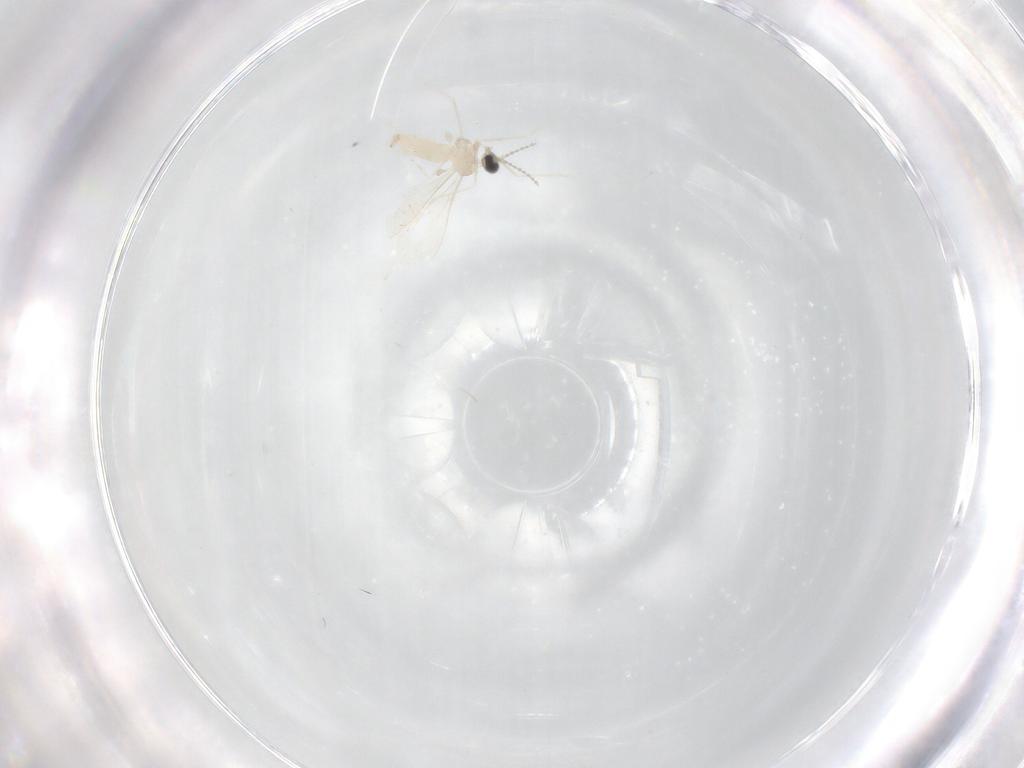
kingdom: Animalia
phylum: Arthropoda
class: Insecta
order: Diptera
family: Cecidomyiidae
